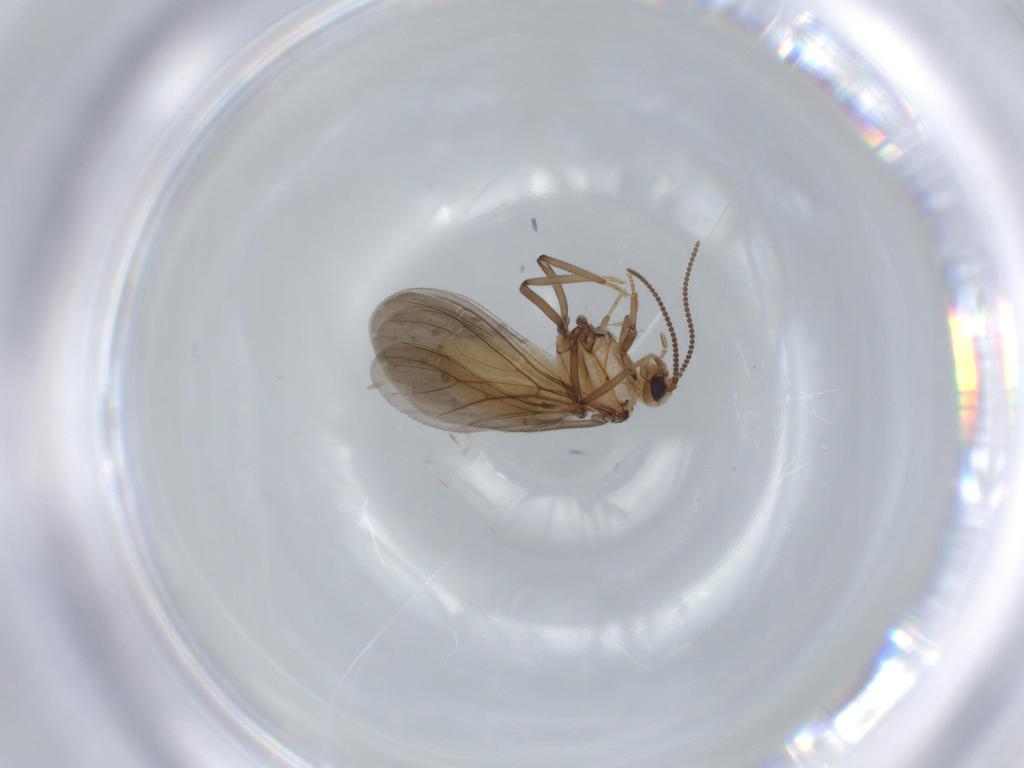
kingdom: Animalia
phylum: Arthropoda
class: Insecta
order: Neuroptera
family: Coniopterygidae
